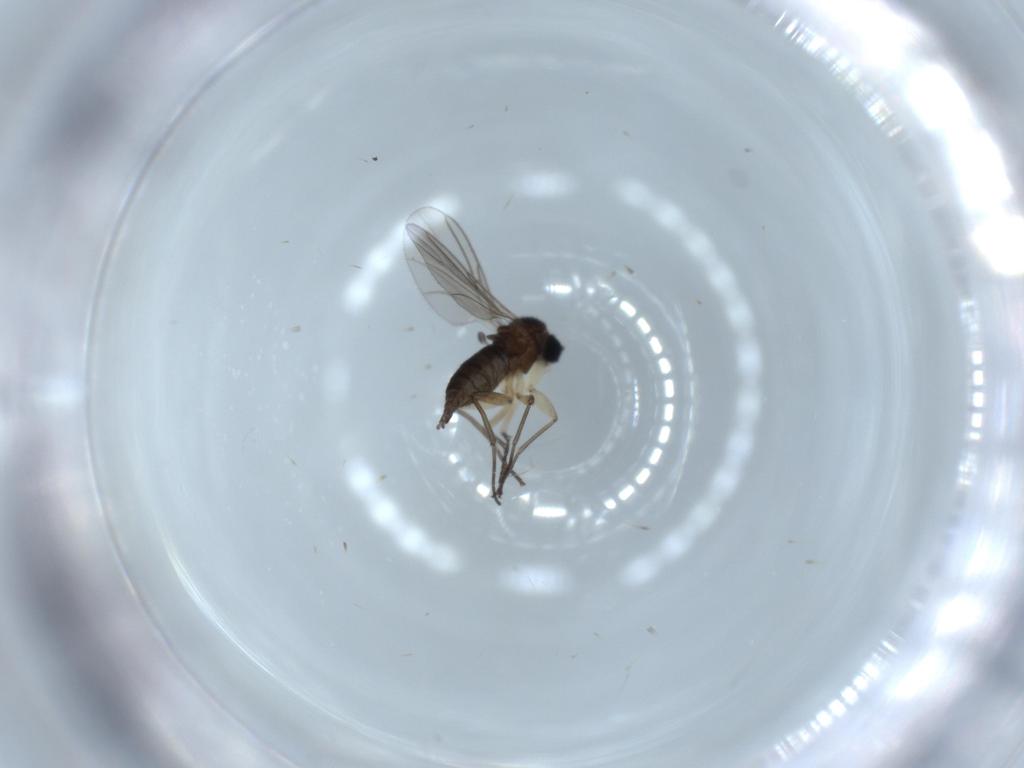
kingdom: Animalia
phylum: Arthropoda
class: Insecta
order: Diptera
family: Sciaridae
